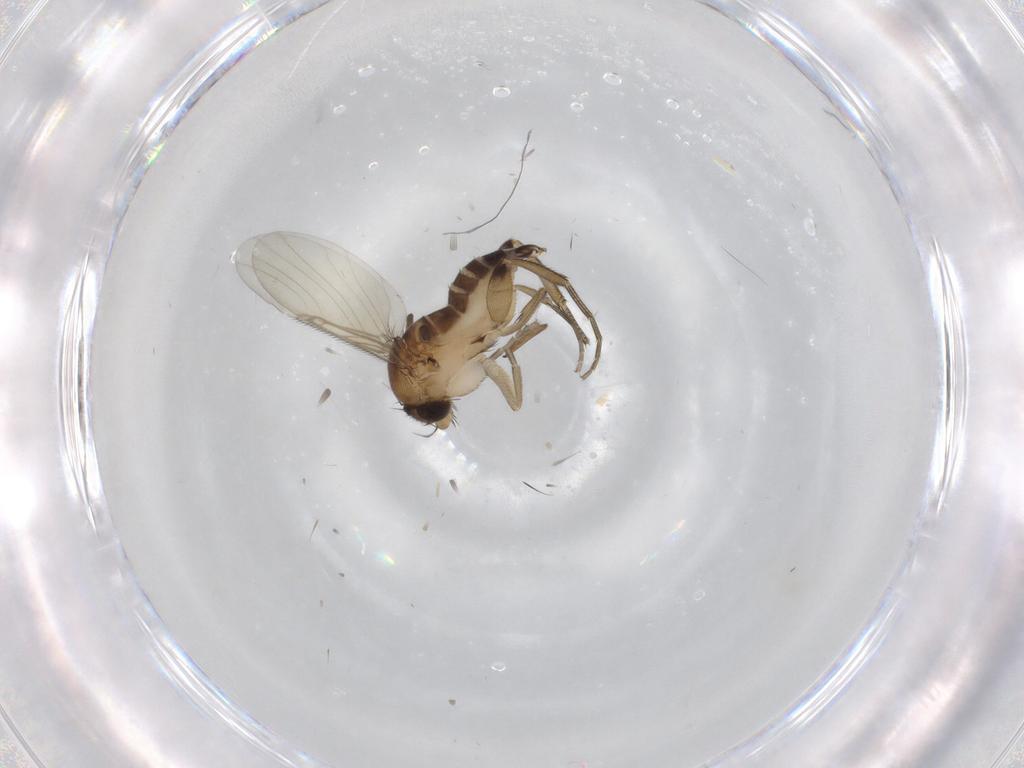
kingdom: Animalia
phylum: Arthropoda
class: Insecta
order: Diptera
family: Phoridae
